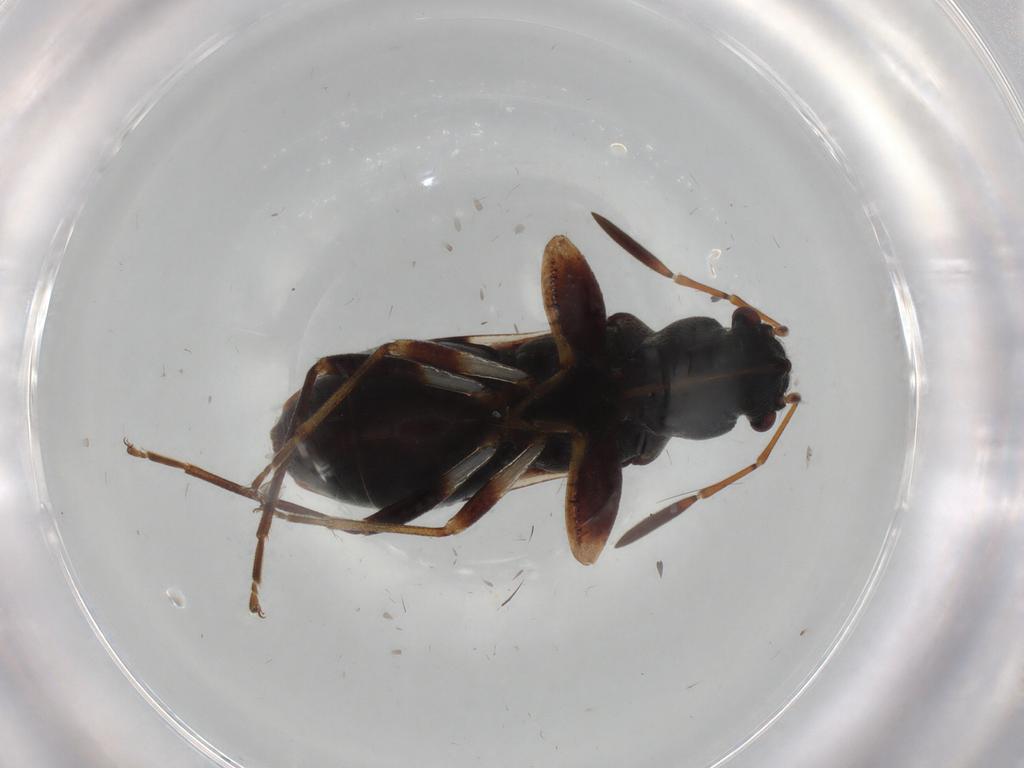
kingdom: Animalia
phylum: Arthropoda
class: Insecta
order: Hemiptera
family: Rhyparochromidae
